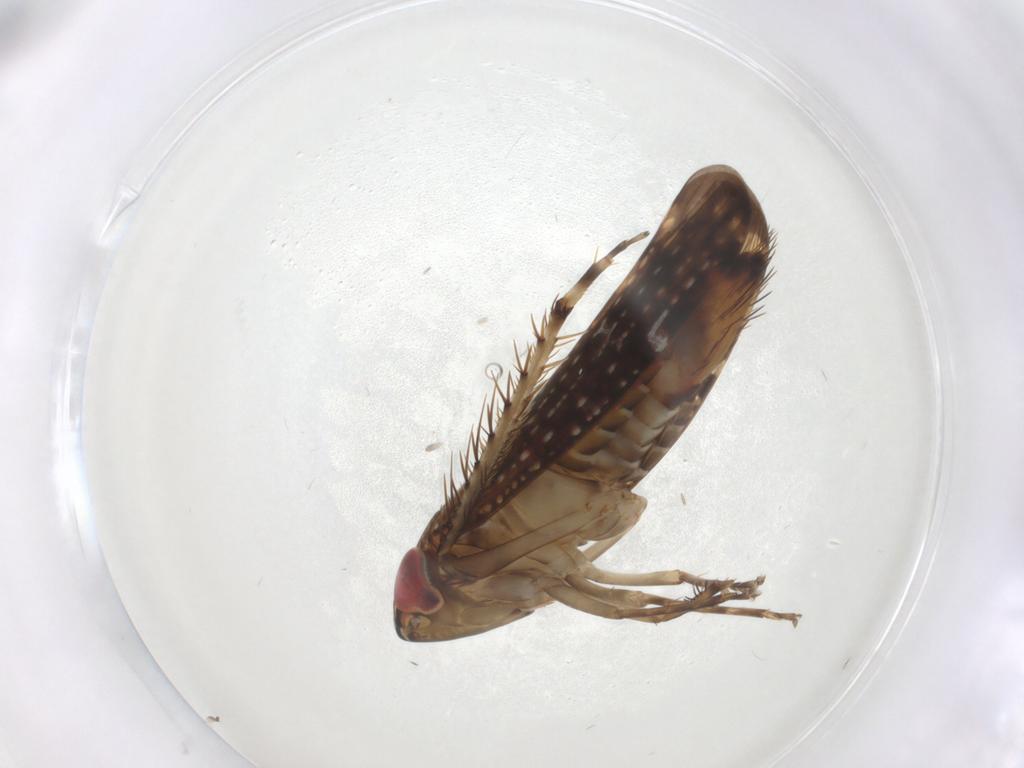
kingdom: Animalia
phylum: Arthropoda
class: Insecta
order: Hemiptera
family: Cicadellidae
